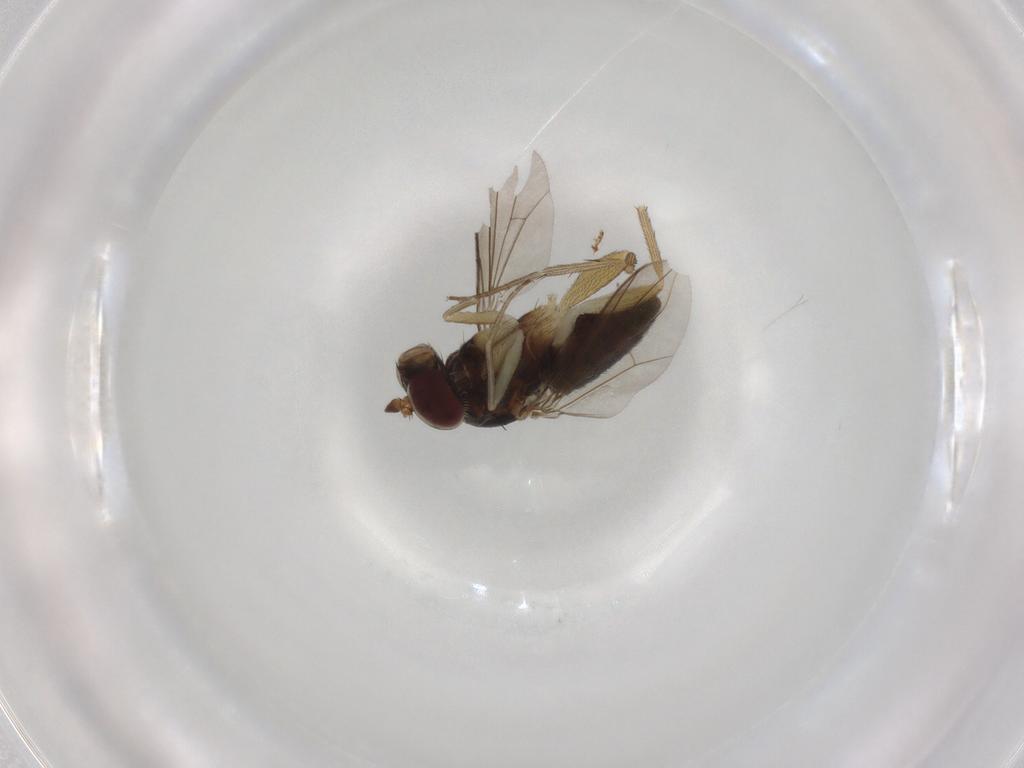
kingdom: Animalia
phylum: Arthropoda
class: Insecta
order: Diptera
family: Dolichopodidae
